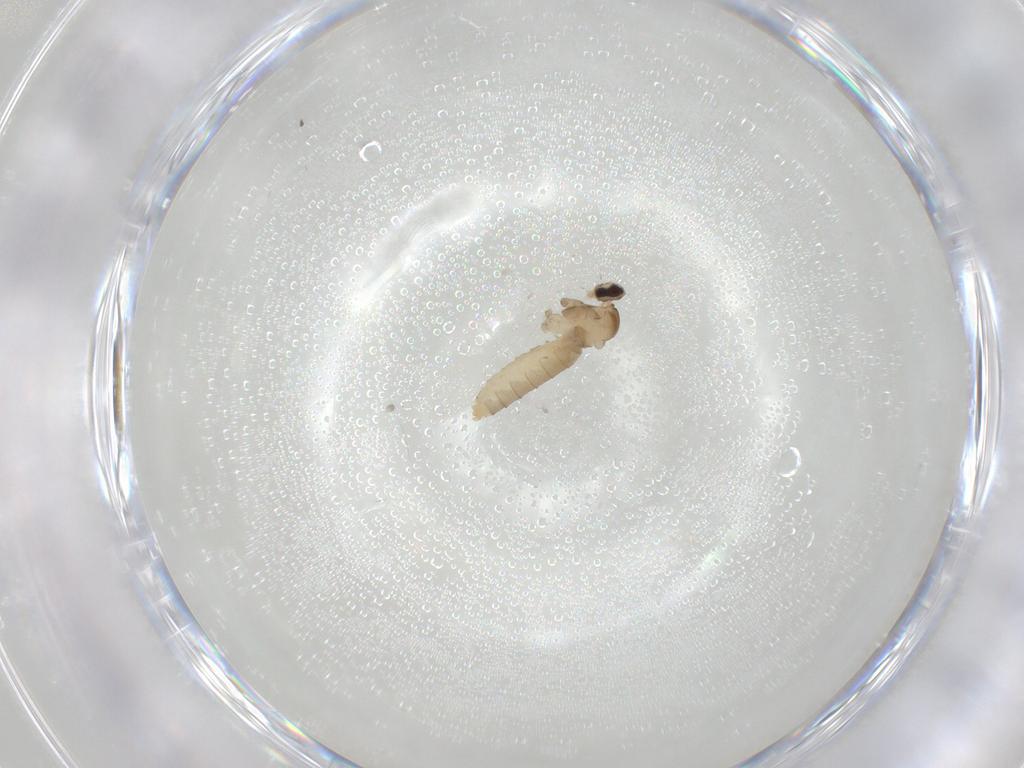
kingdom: Animalia
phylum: Arthropoda
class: Insecta
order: Diptera
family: Cecidomyiidae
